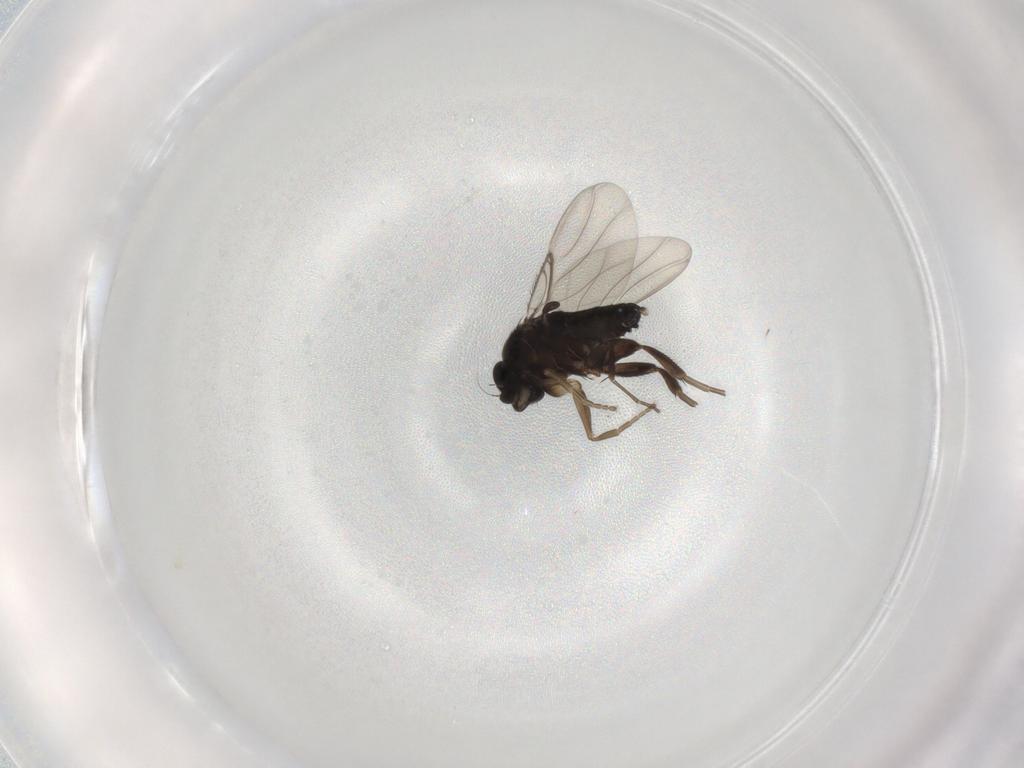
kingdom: Animalia
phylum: Arthropoda
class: Insecta
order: Diptera
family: Phoridae
